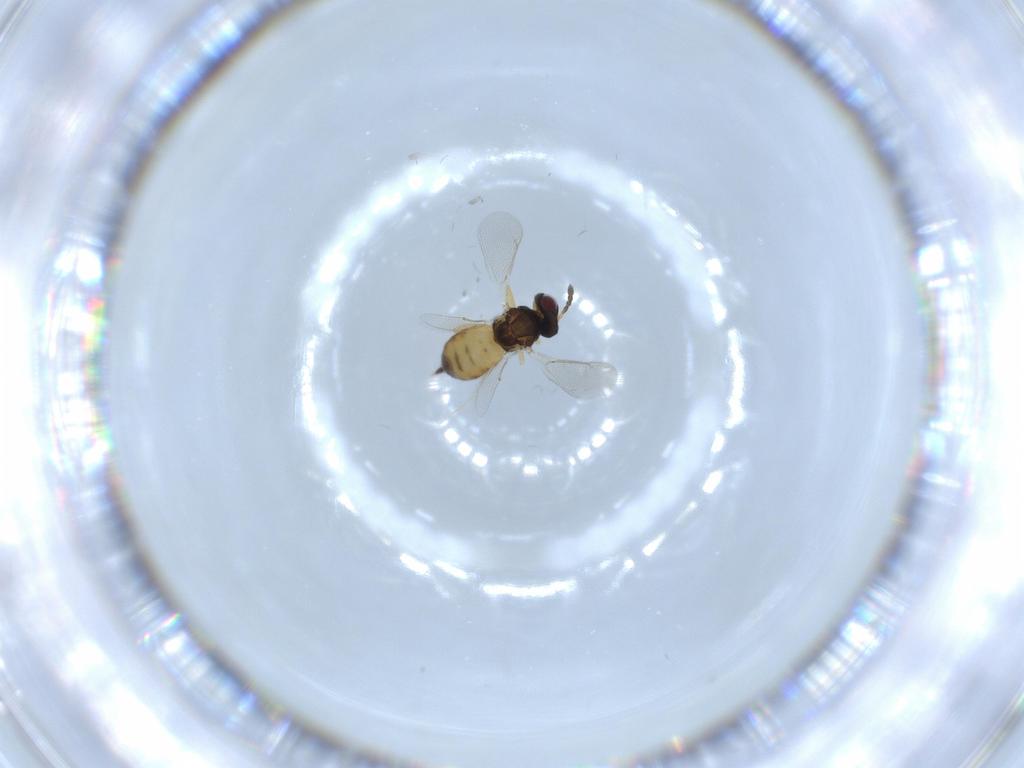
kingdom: Animalia
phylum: Arthropoda
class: Insecta
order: Hymenoptera
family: Eulophidae
